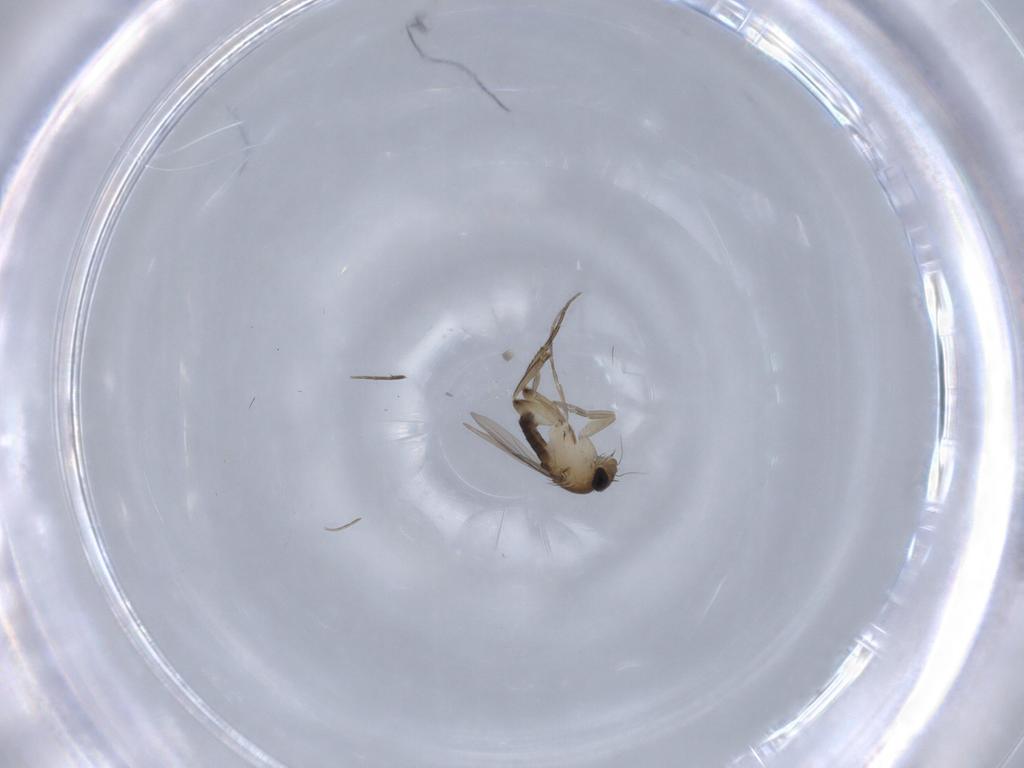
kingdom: Animalia
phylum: Arthropoda
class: Insecta
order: Diptera
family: Phoridae
